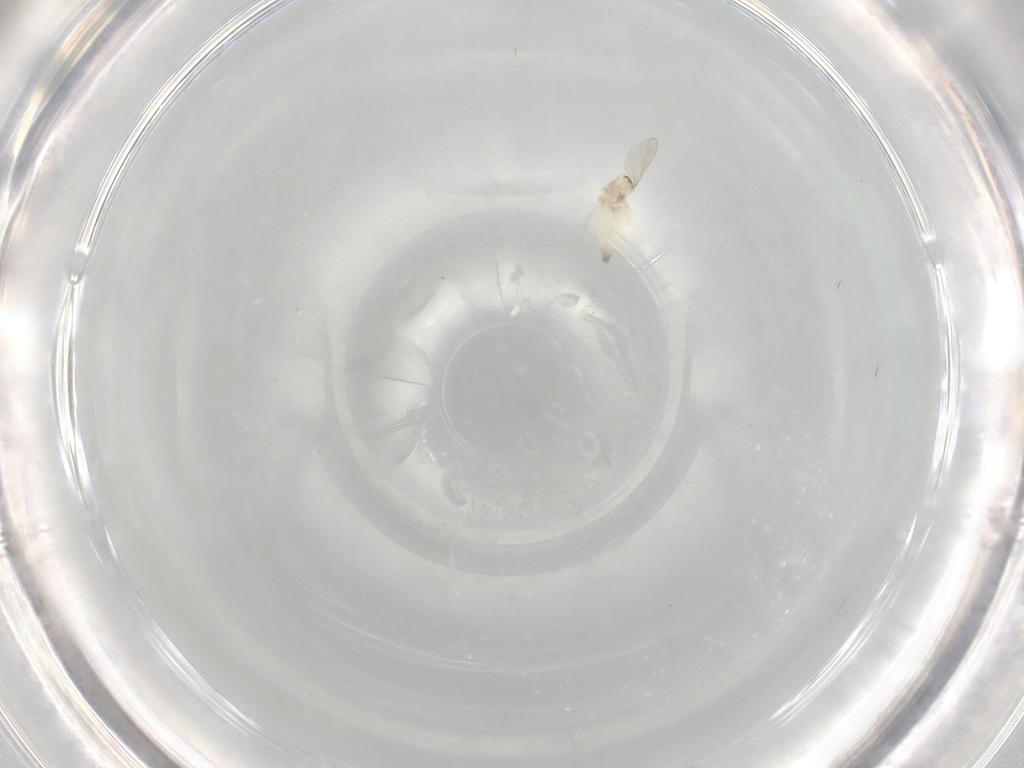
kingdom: Animalia
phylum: Arthropoda
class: Insecta
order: Diptera
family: Cecidomyiidae
